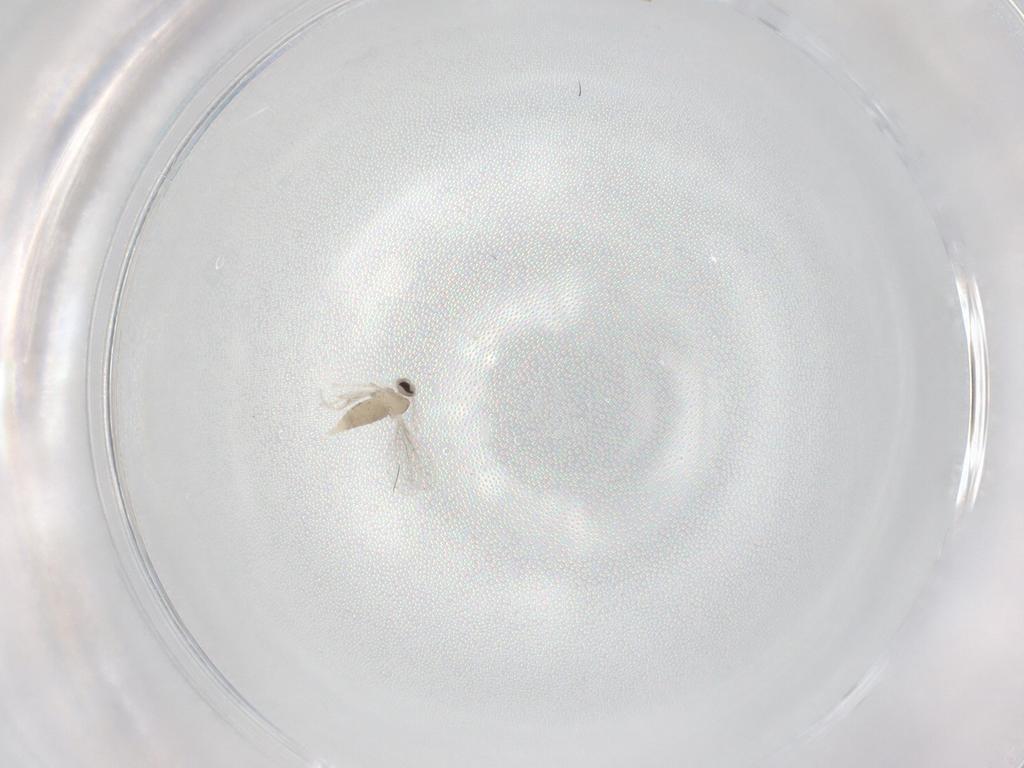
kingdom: Animalia
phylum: Arthropoda
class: Insecta
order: Diptera
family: Cecidomyiidae
